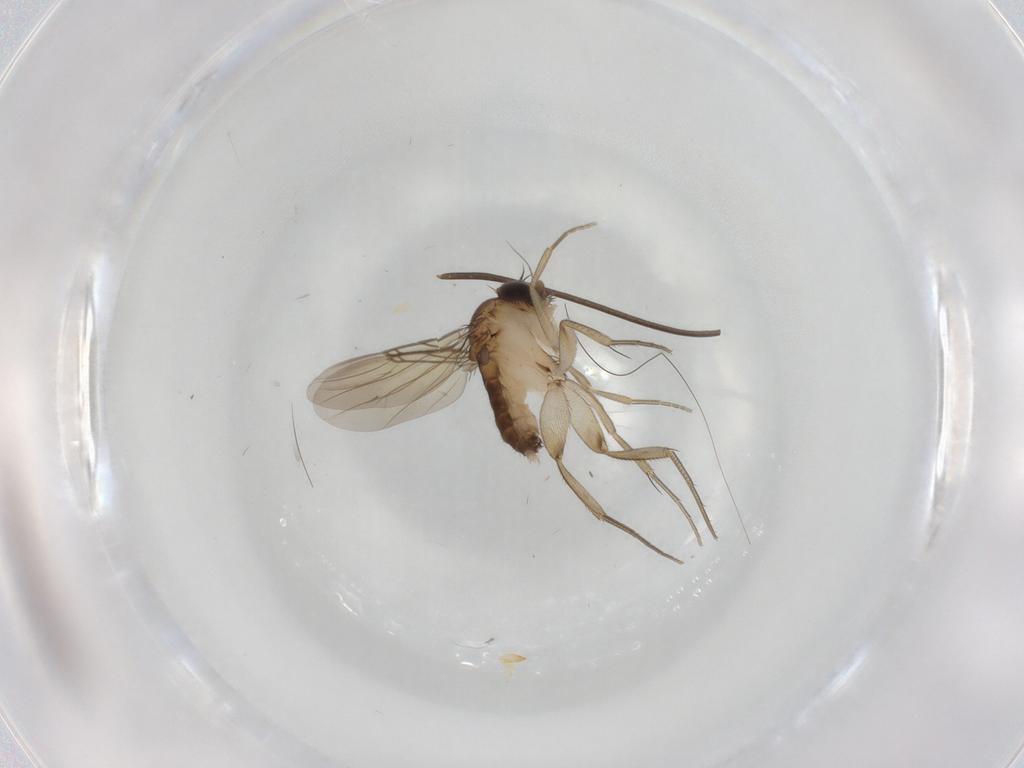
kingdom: Animalia
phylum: Arthropoda
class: Insecta
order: Diptera
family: Phoridae
